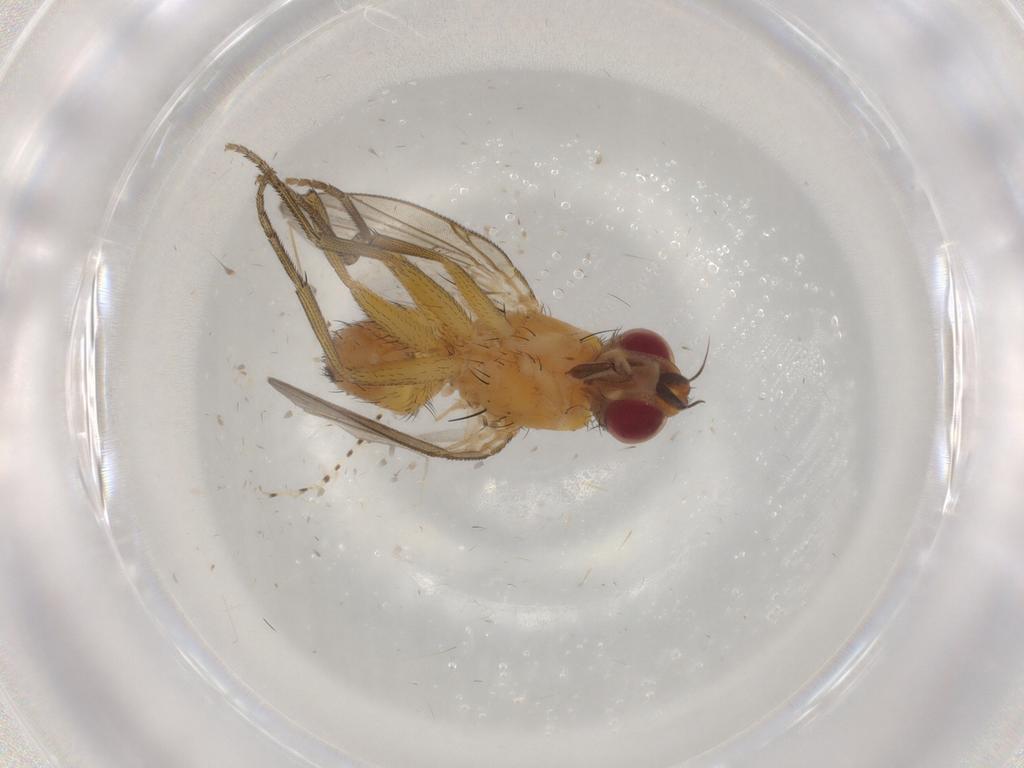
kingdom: Animalia
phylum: Arthropoda
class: Insecta
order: Diptera
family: Muscidae
